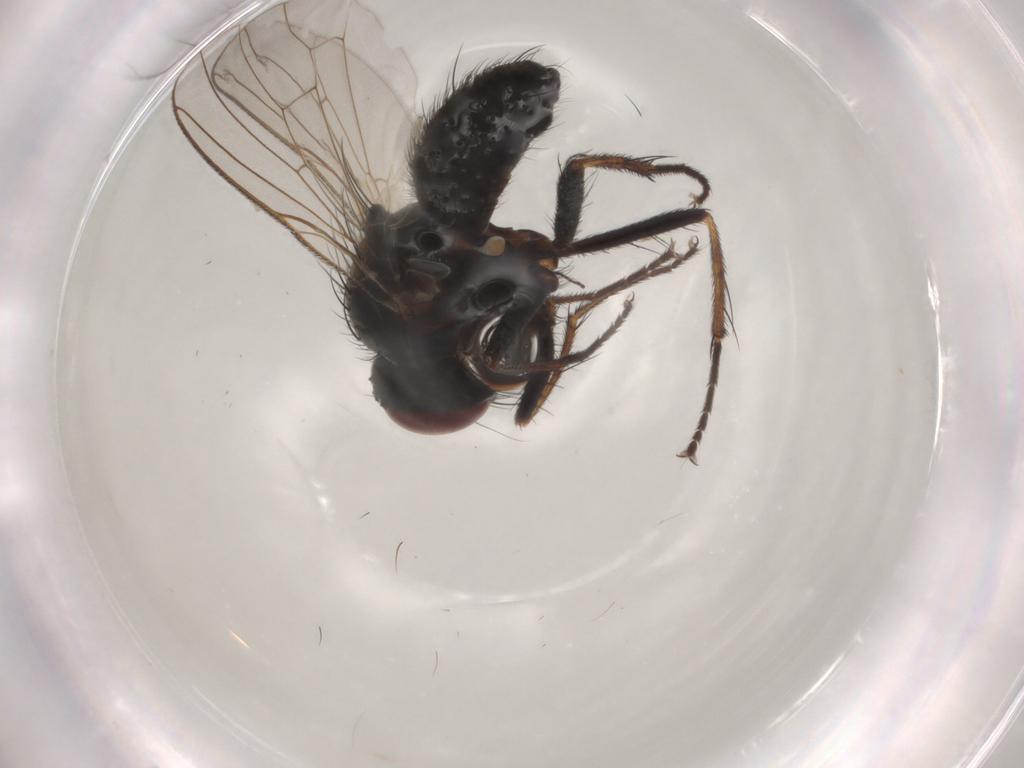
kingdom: Animalia
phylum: Arthropoda
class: Insecta
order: Diptera
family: Muscidae
